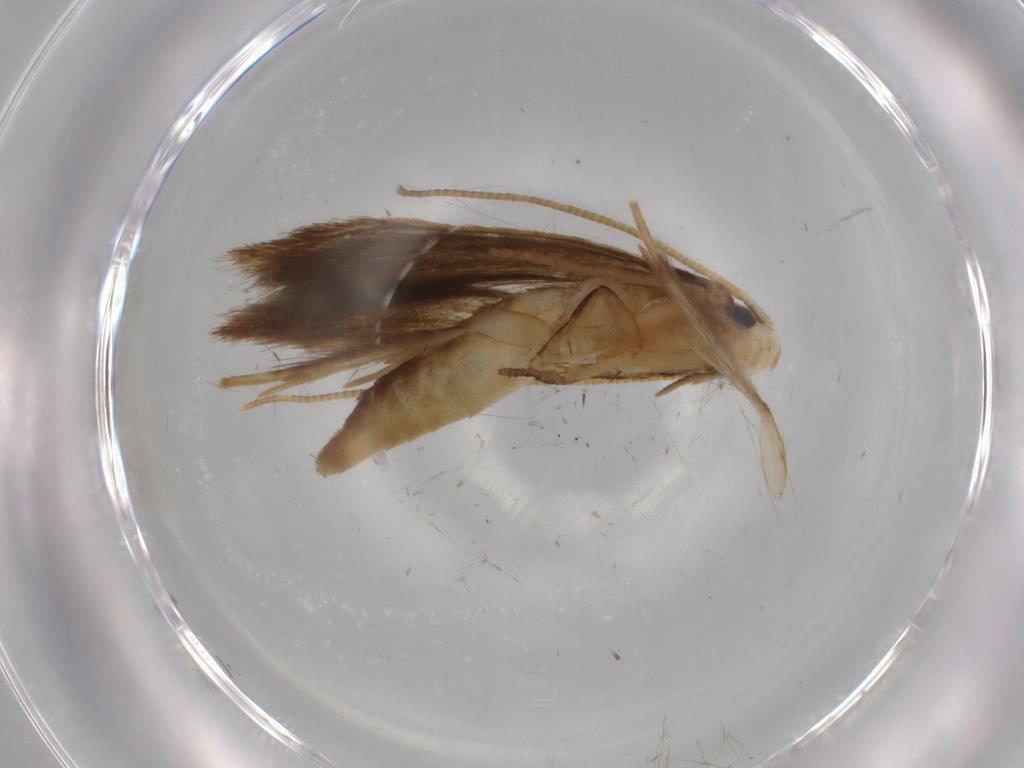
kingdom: Animalia
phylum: Arthropoda
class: Insecta
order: Lepidoptera
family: Tineidae
